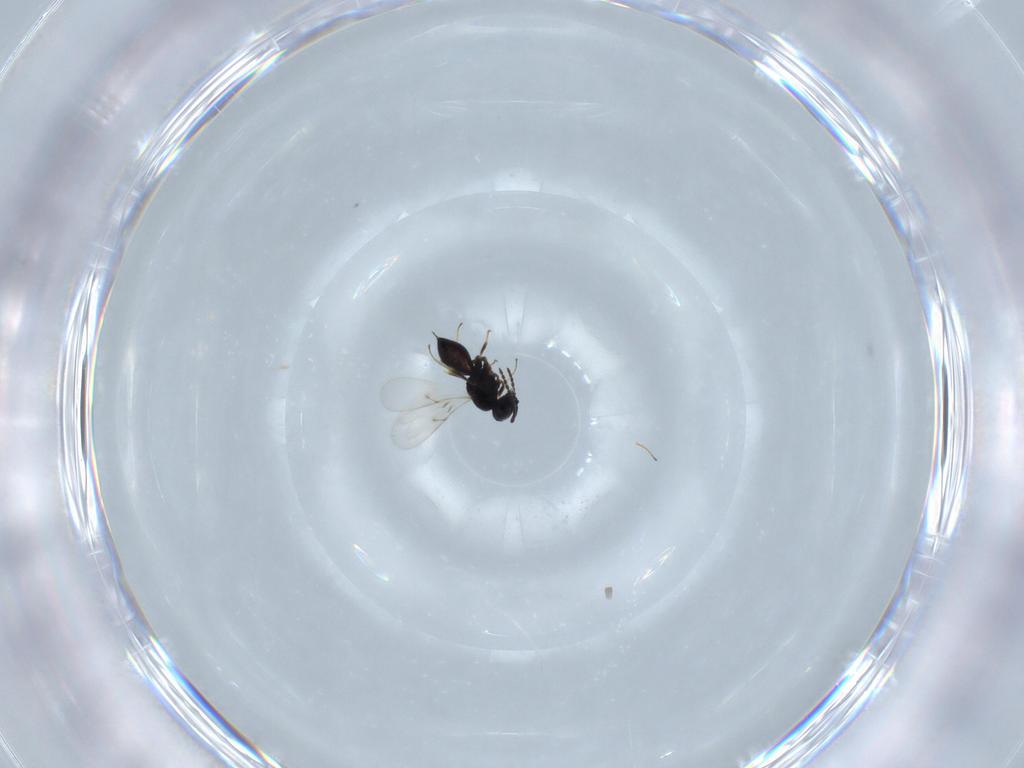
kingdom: Animalia
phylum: Arthropoda
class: Insecta
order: Hymenoptera
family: Scelionidae
